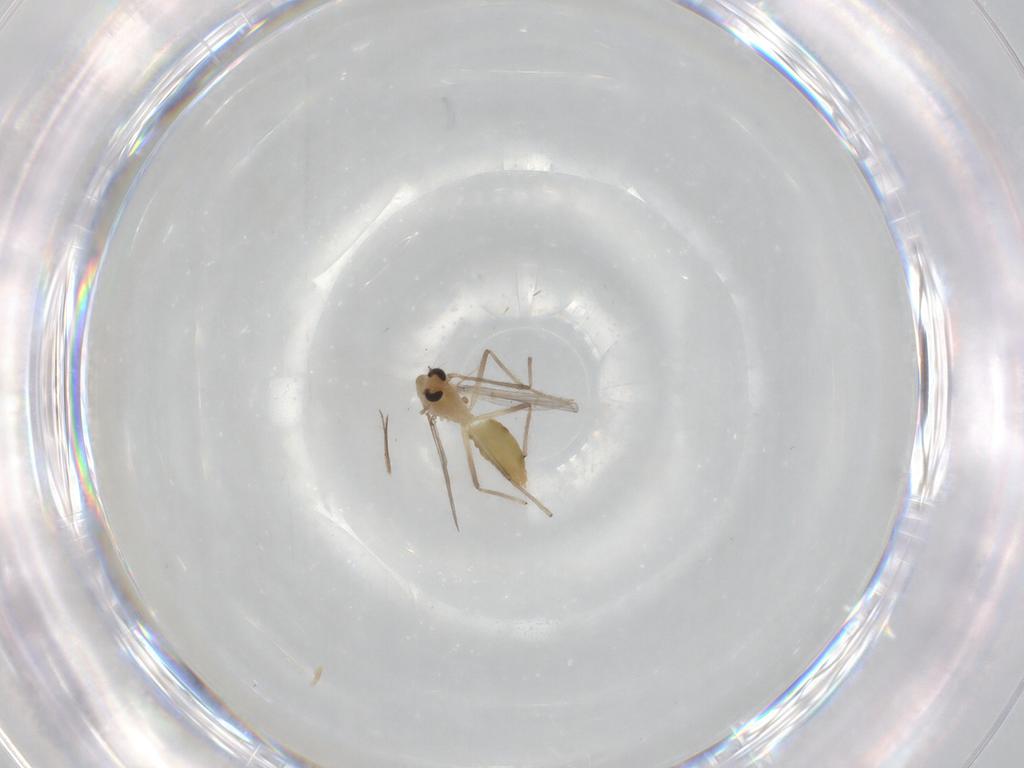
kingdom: Animalia
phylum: Arthropoda
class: Insecta
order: Diptera
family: Chironomidae
